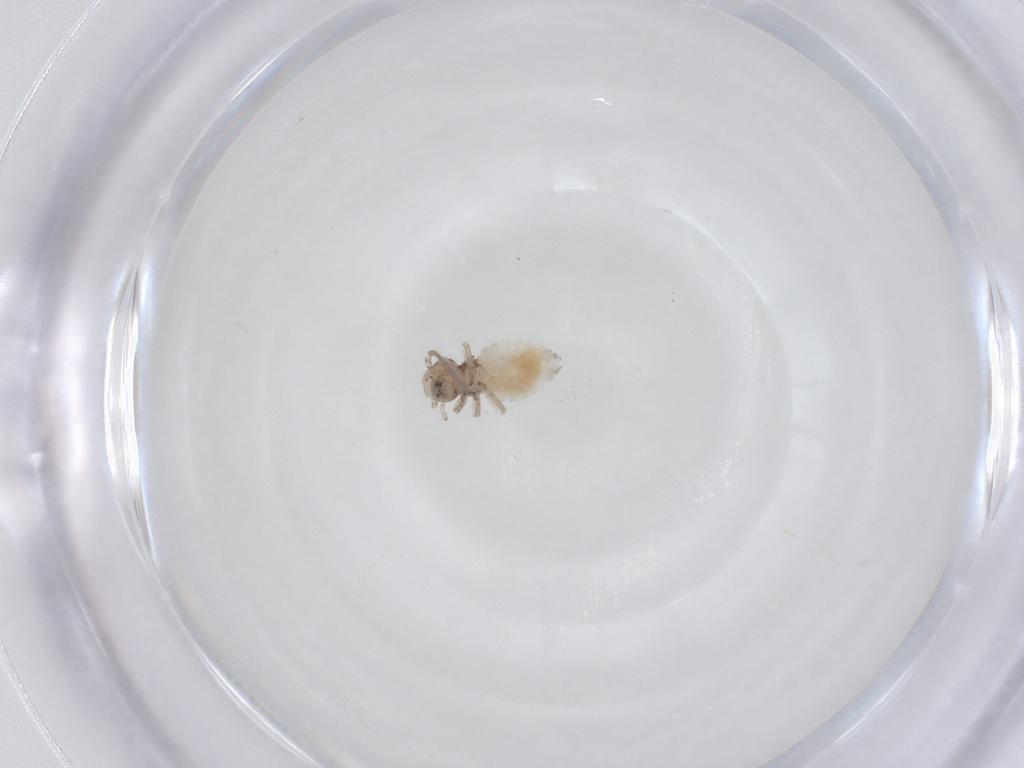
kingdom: Animalia
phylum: Arthropoda
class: Insecta
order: Psocodea
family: Caeciliusidae
